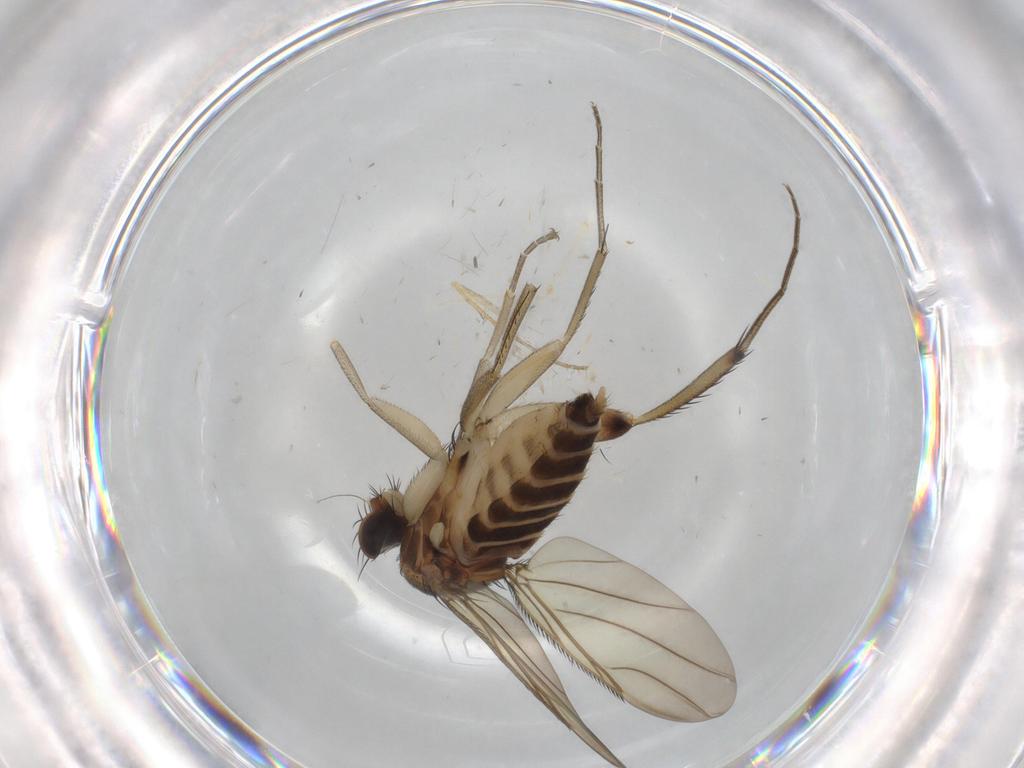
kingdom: Animalia
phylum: Arthropoda
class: Insecta
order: Diptera
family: Phoridae
